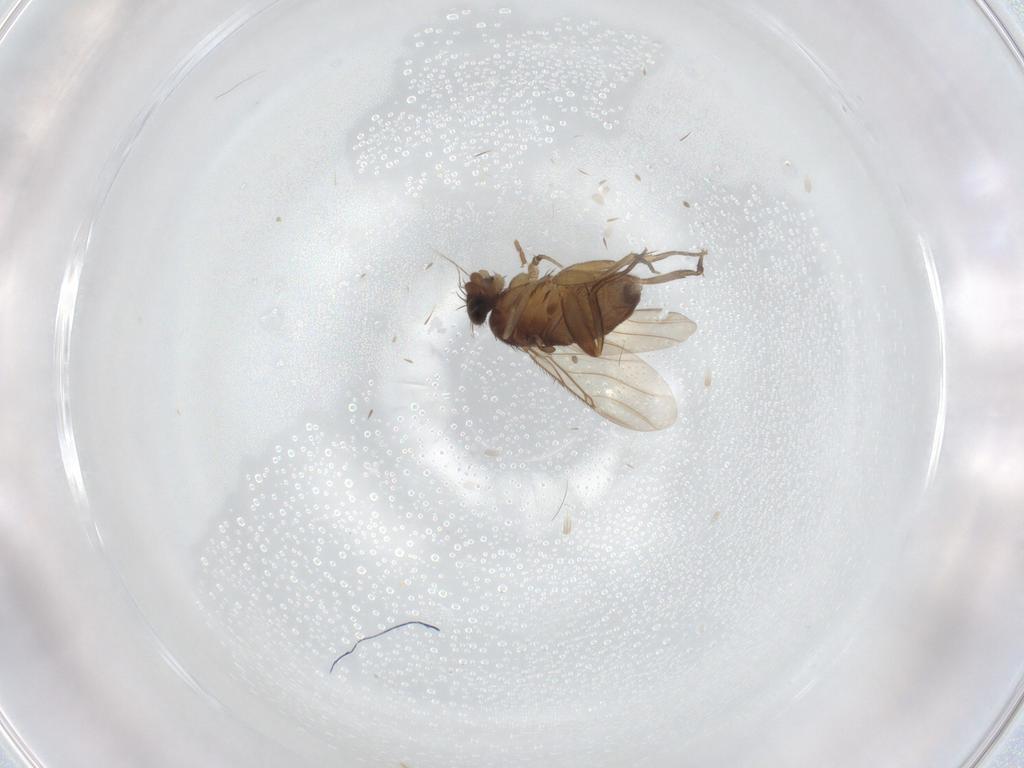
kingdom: Animalia
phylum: Arthropoda
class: Insecta
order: Diptera
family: Phoridae
